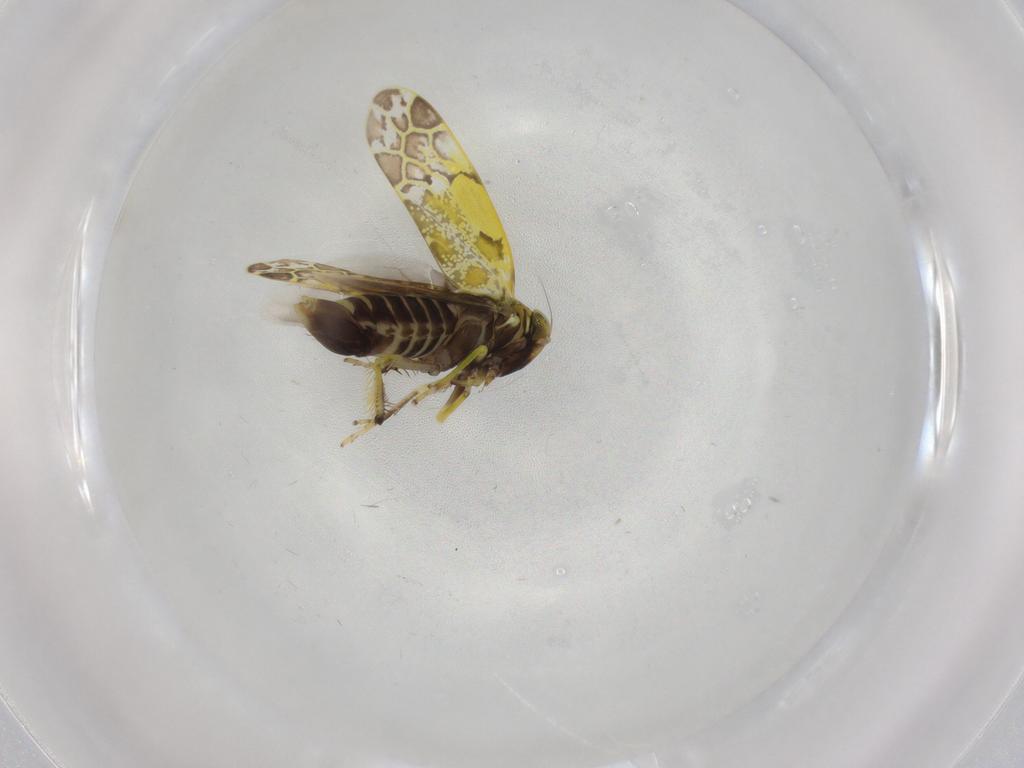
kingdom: Animalia
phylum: Arthropoda
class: Insecta
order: Hemiptera
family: Cicadellidae
